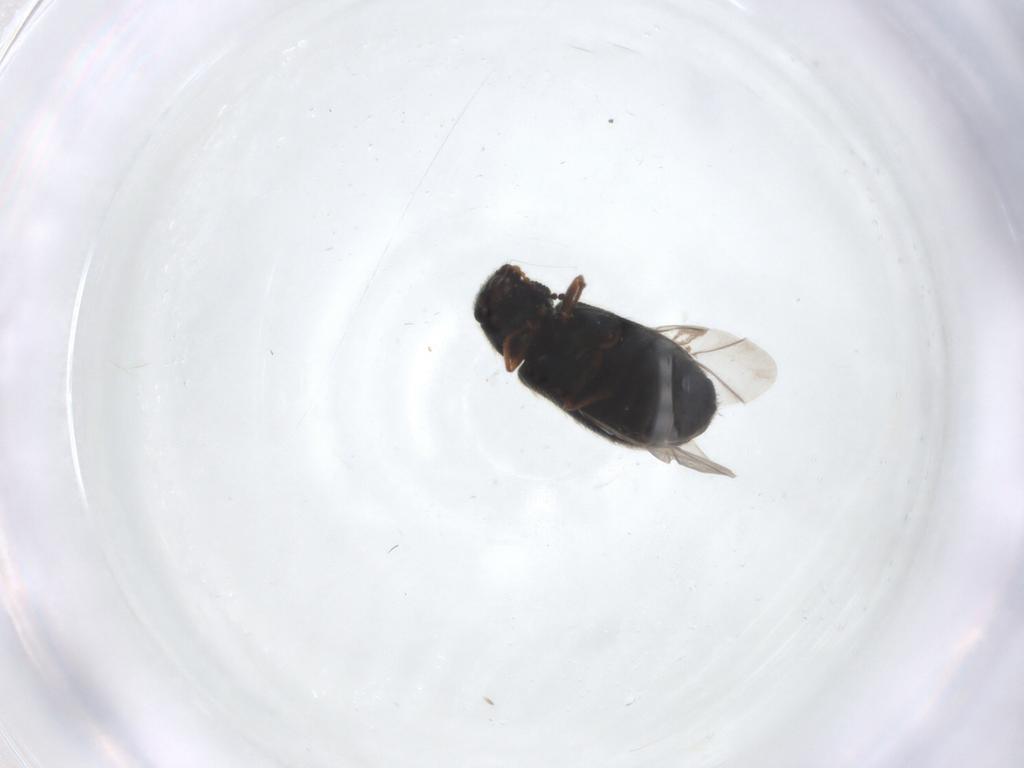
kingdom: Animalia
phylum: Arthropoda
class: Insecta
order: Coleoptera
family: Melyridae
